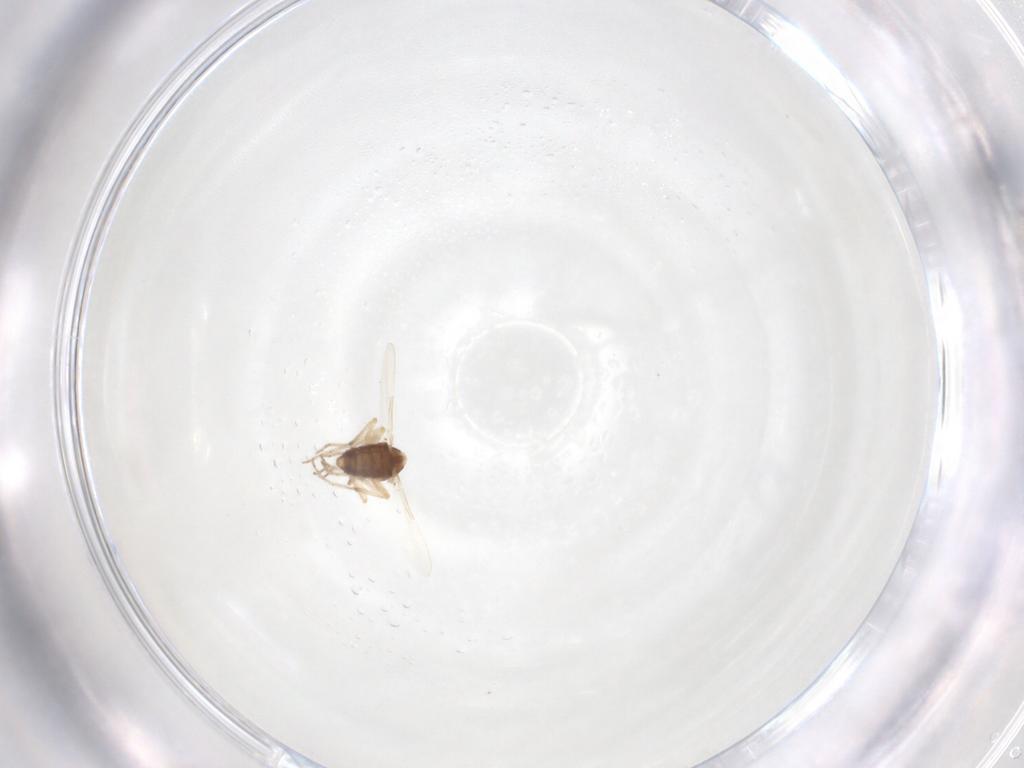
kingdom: Animalia
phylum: Arthropoda
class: Insecta
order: Diptera
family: Ceratopogonidae
